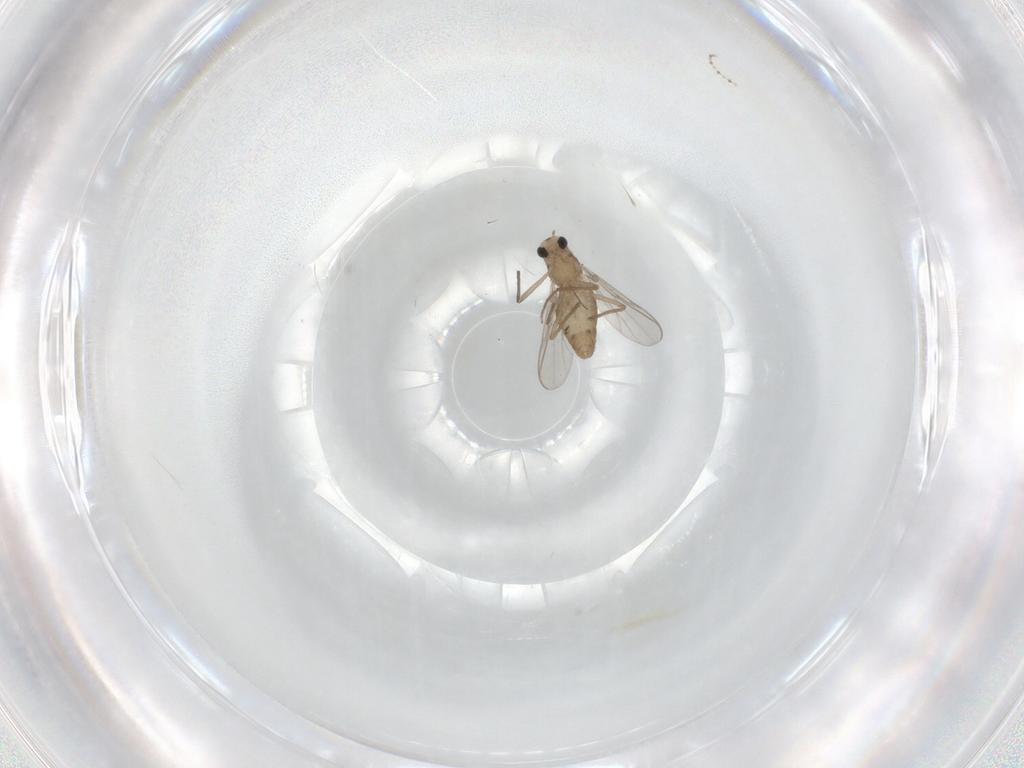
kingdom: Animalia
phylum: Arthropoda
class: Insecta
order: Diptera
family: Chironomidae
